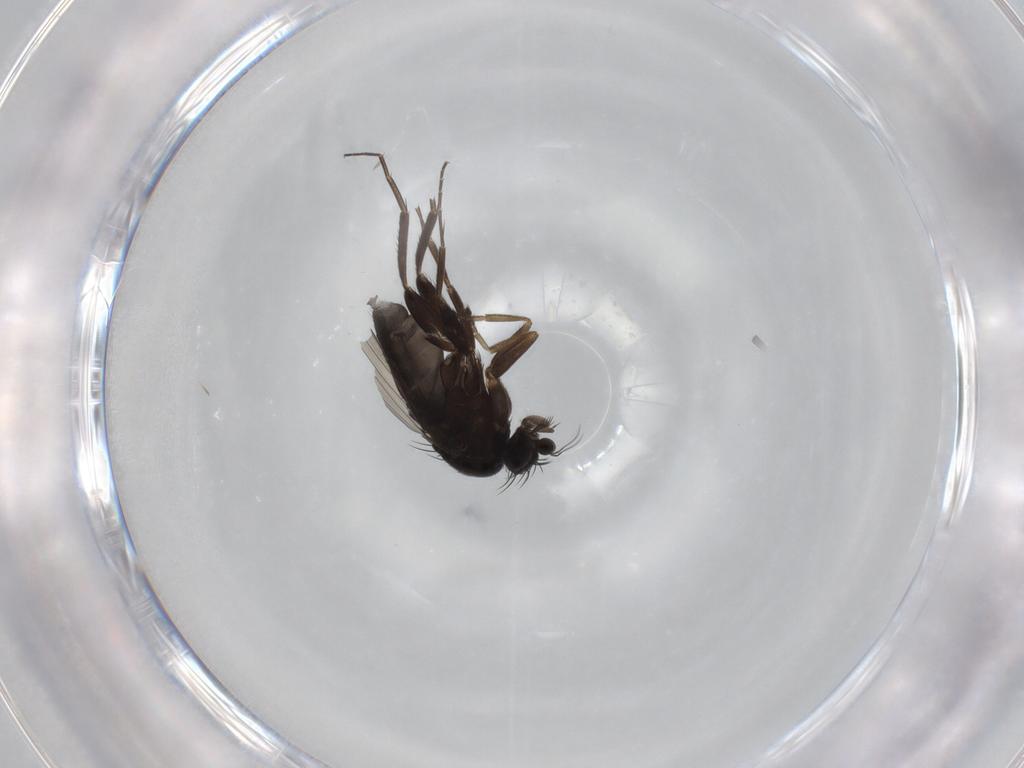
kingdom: Animalia
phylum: Arthropoda
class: Insecta
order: Diptera
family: Phoridae
